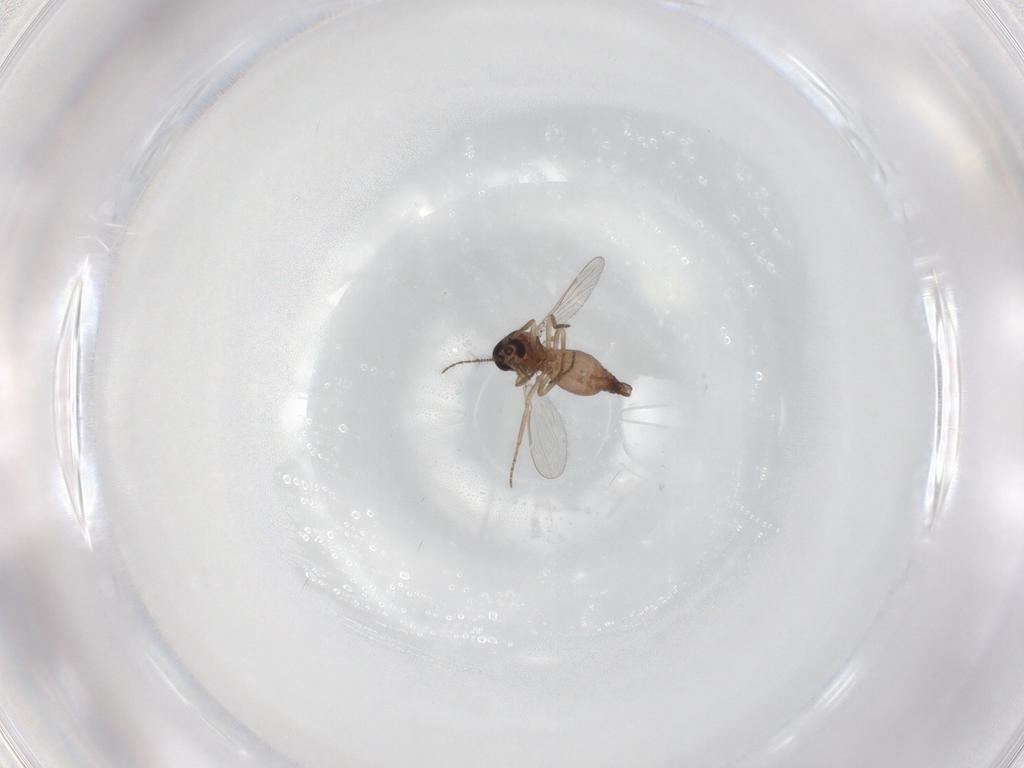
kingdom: Animalia
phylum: Arthropoda
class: Insecta
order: Diptera
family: Ceratopogonidae
